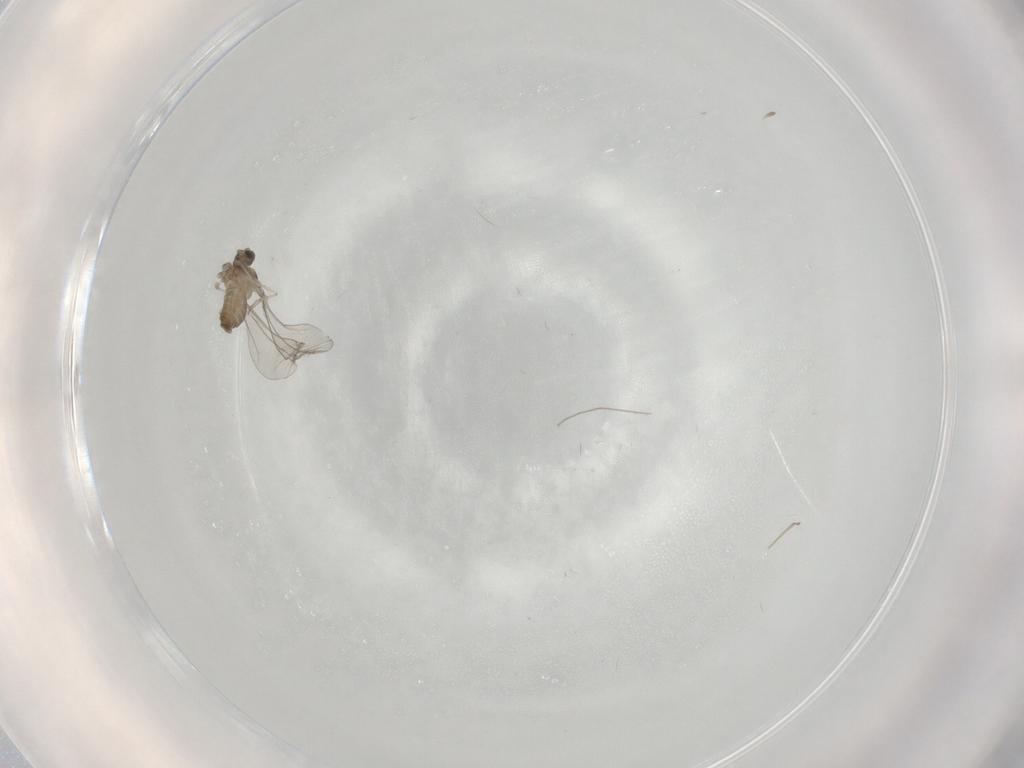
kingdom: Animalia
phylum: Arthropoda
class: Insecta
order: Diptera
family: Cecidomyiidae
